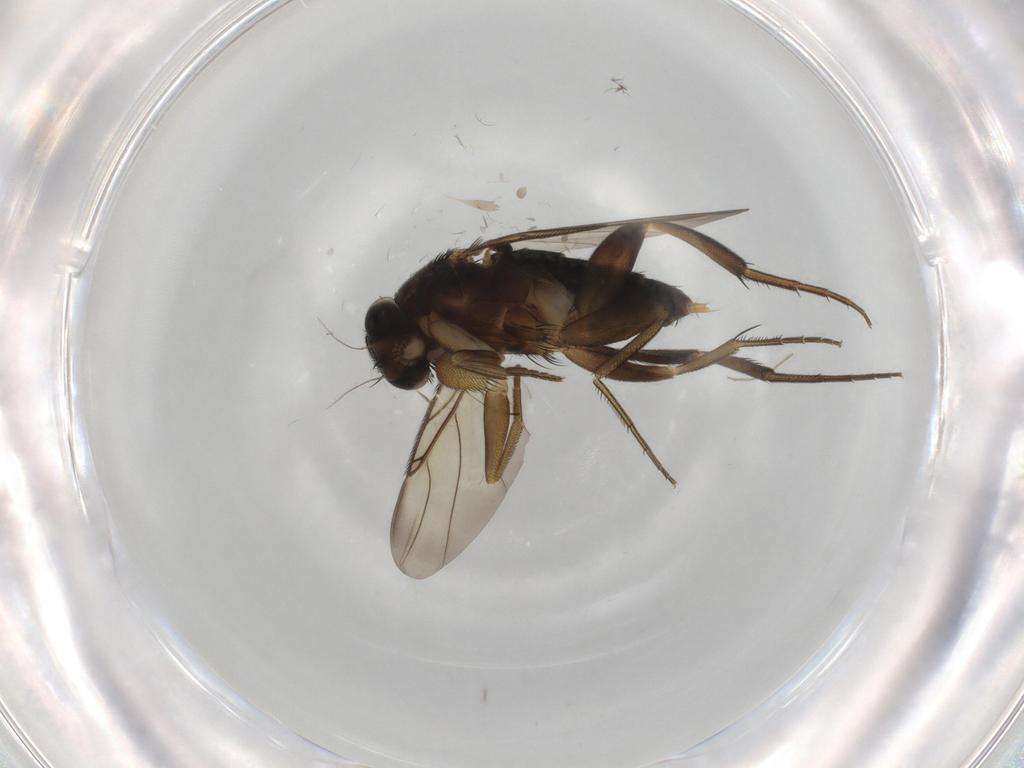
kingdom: Animalia
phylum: Arthropoda
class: Insecta
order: Diptera
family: Phoridae
